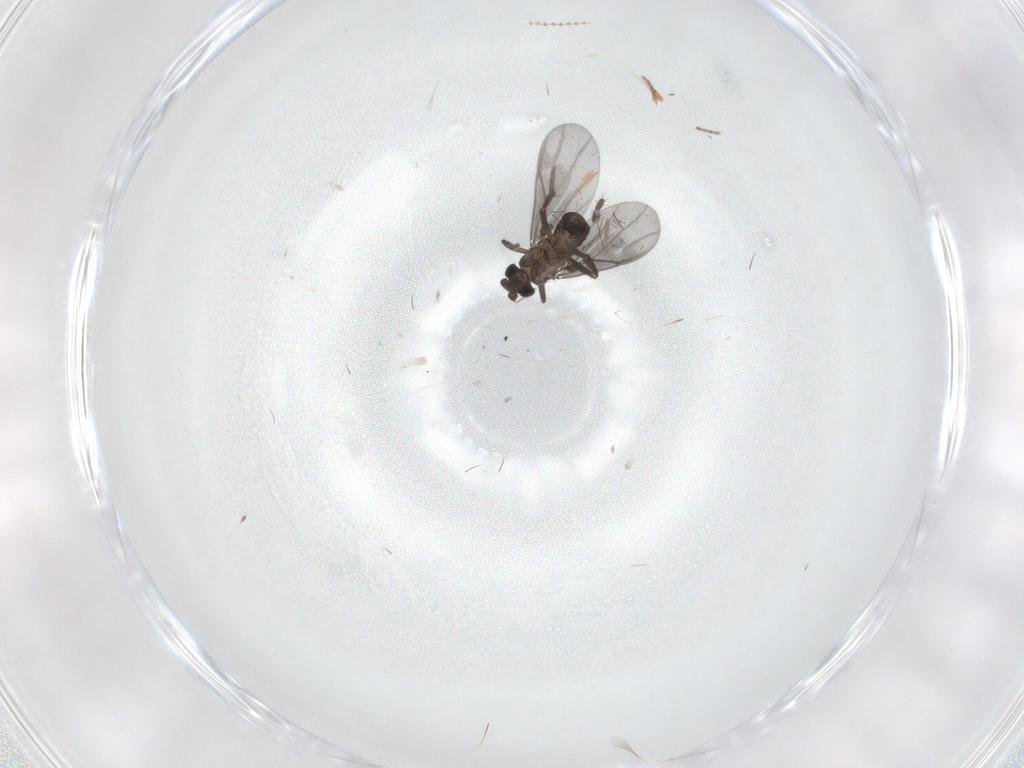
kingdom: Animalia
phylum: Arthropoda
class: Insecta
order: Diptera
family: Phoridae
